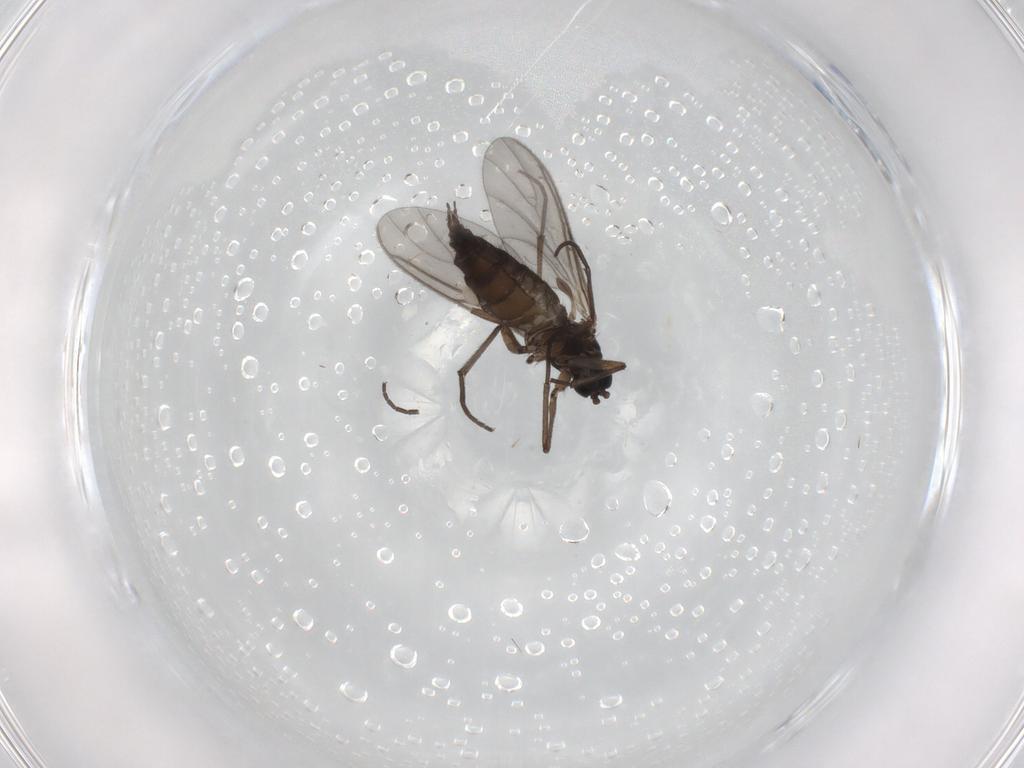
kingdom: Animalia
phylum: Arthropoda
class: Insecta
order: Diptera
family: Sciaridae
